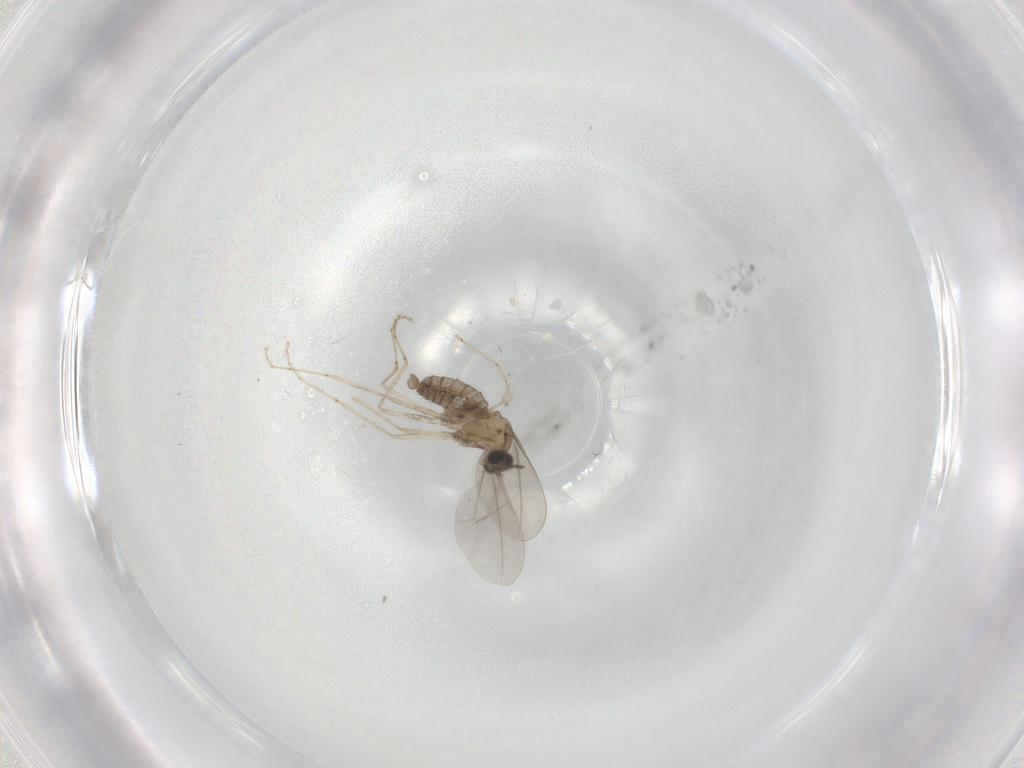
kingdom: Animalia
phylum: Arthropoda
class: Insecta
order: Diptera
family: Cecidomyiidae
